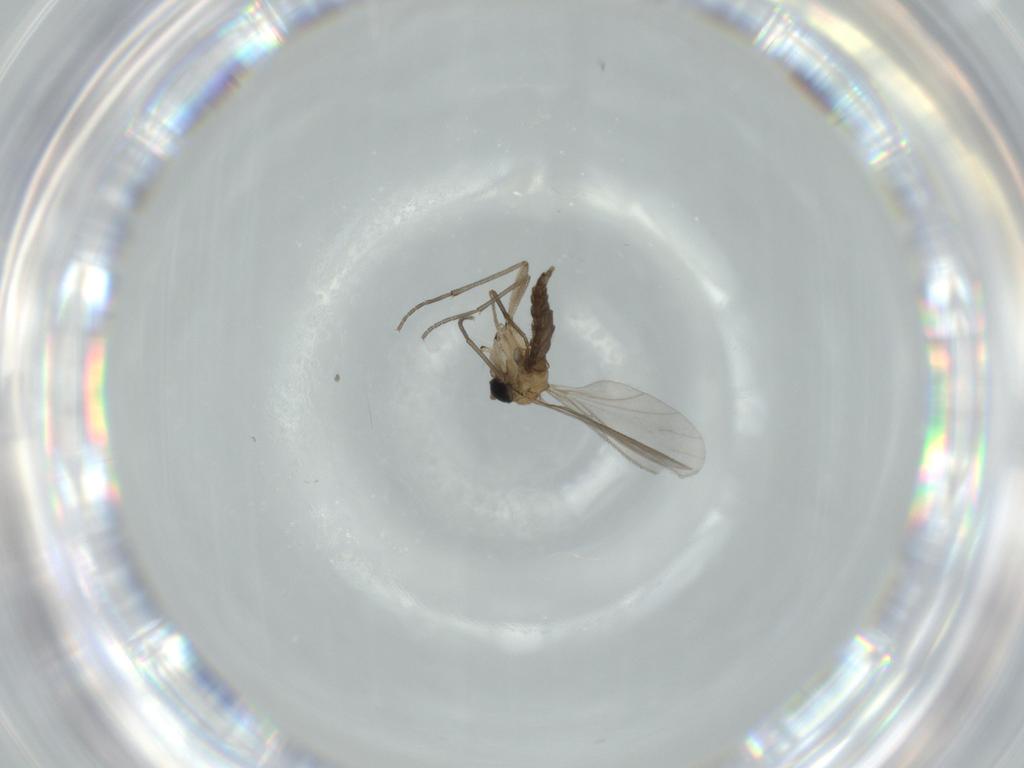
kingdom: Animalia
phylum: Arthropoda
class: Insecta
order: Diptera
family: Sciaridae
